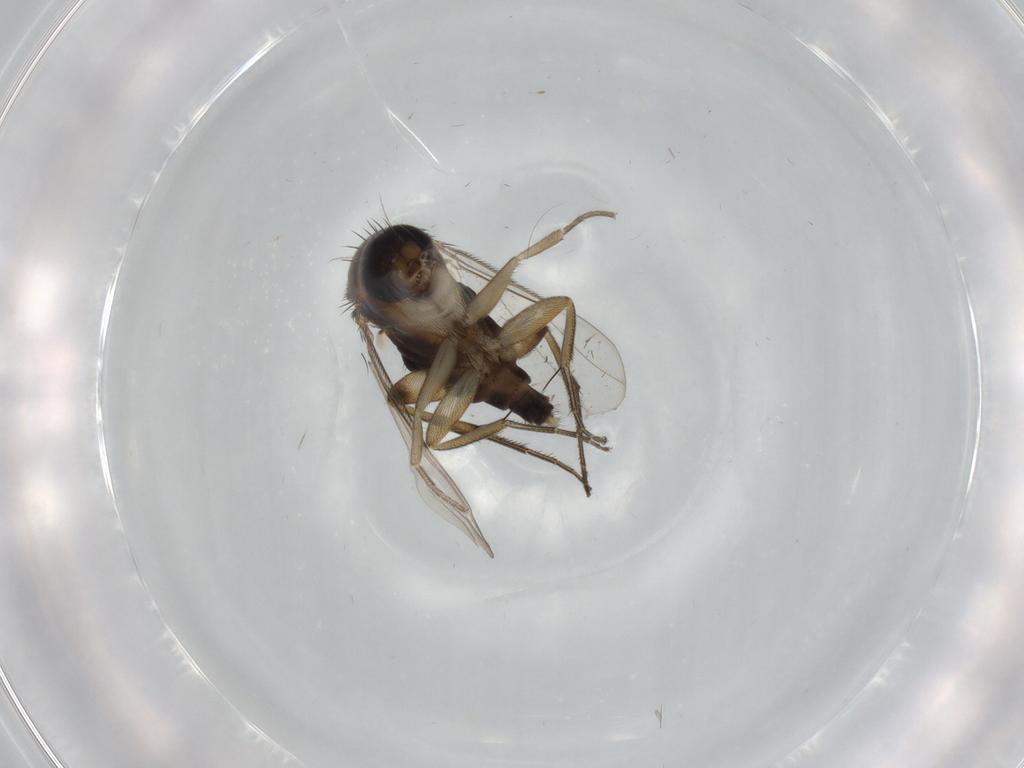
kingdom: Animalia
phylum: Arthropoda
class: Insecta
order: Diptera
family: Phoridae
